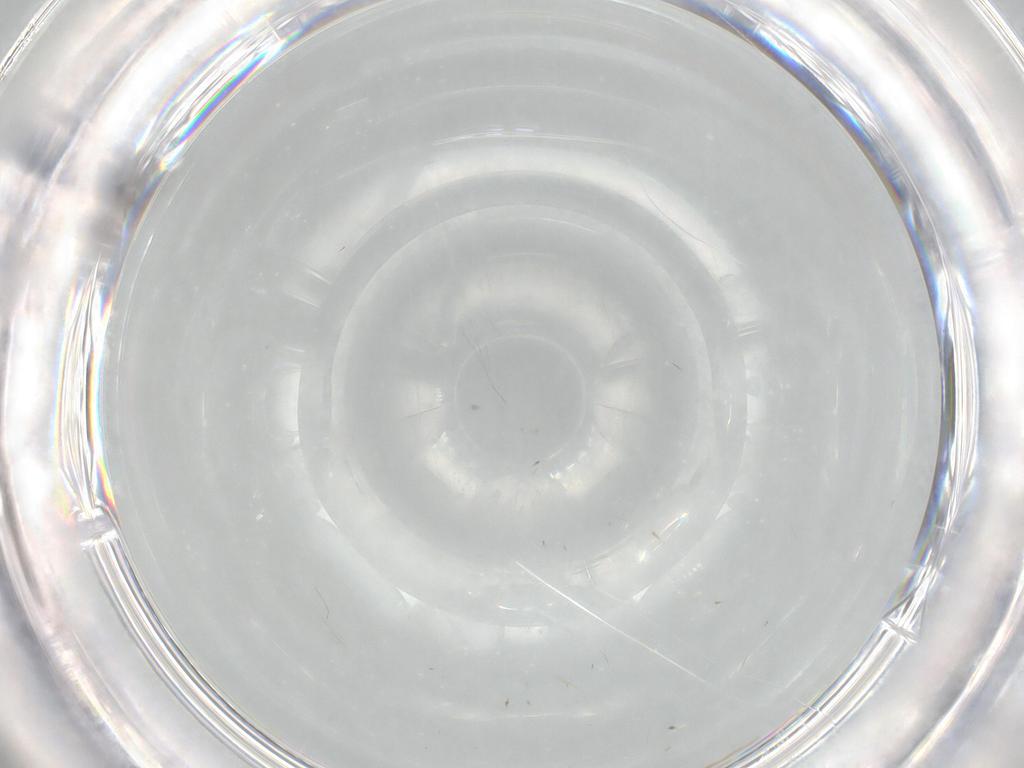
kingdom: Animalia
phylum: Arthropoda
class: Insecta
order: Hymenoptera
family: Scelionidae
